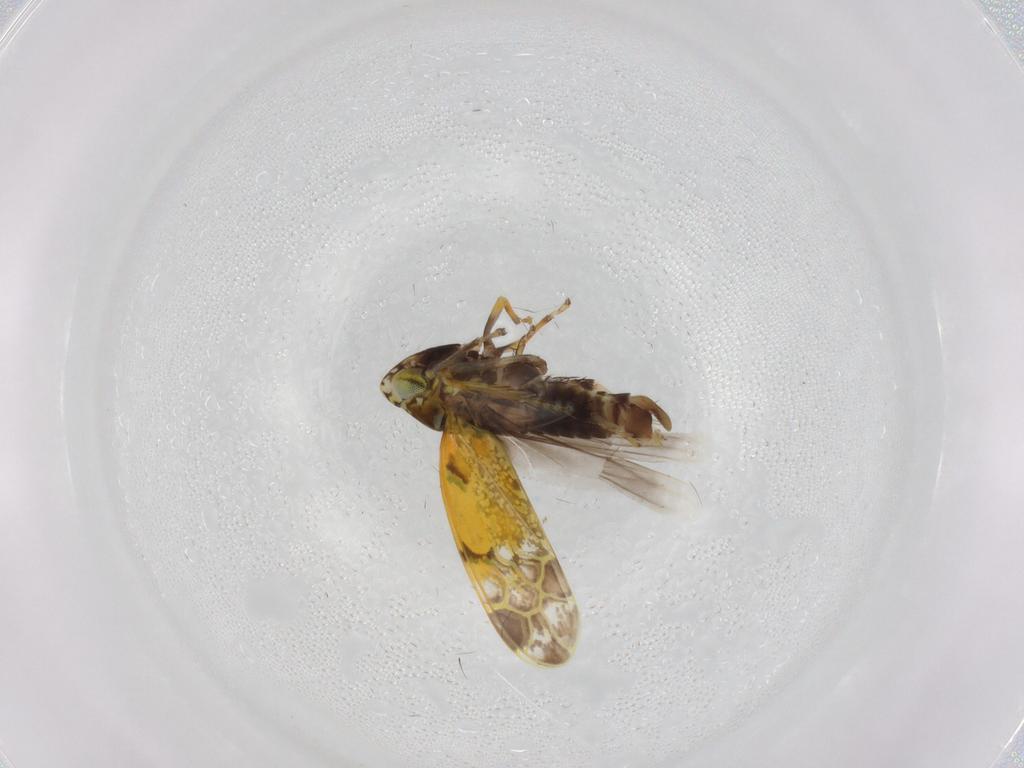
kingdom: Animalia
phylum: Arthropoda
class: Insecta
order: Hemiptera
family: Cicadellidae
